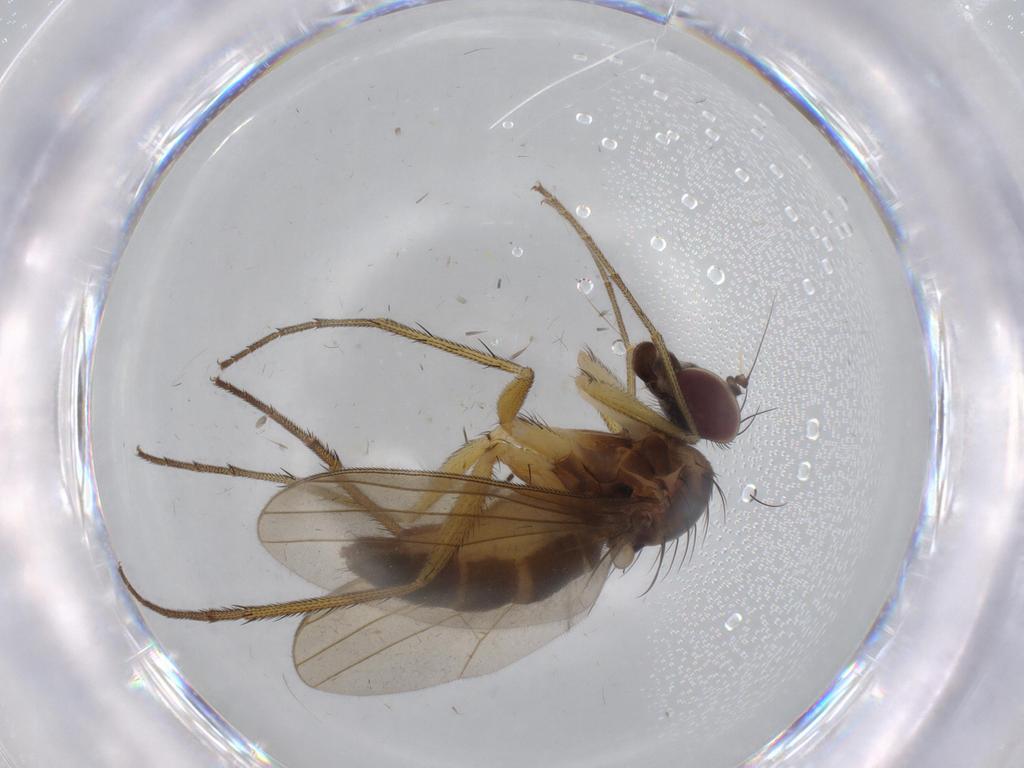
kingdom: Animalia
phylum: Arthropoda
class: Insecta
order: Diptera
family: Dolichopodidae
